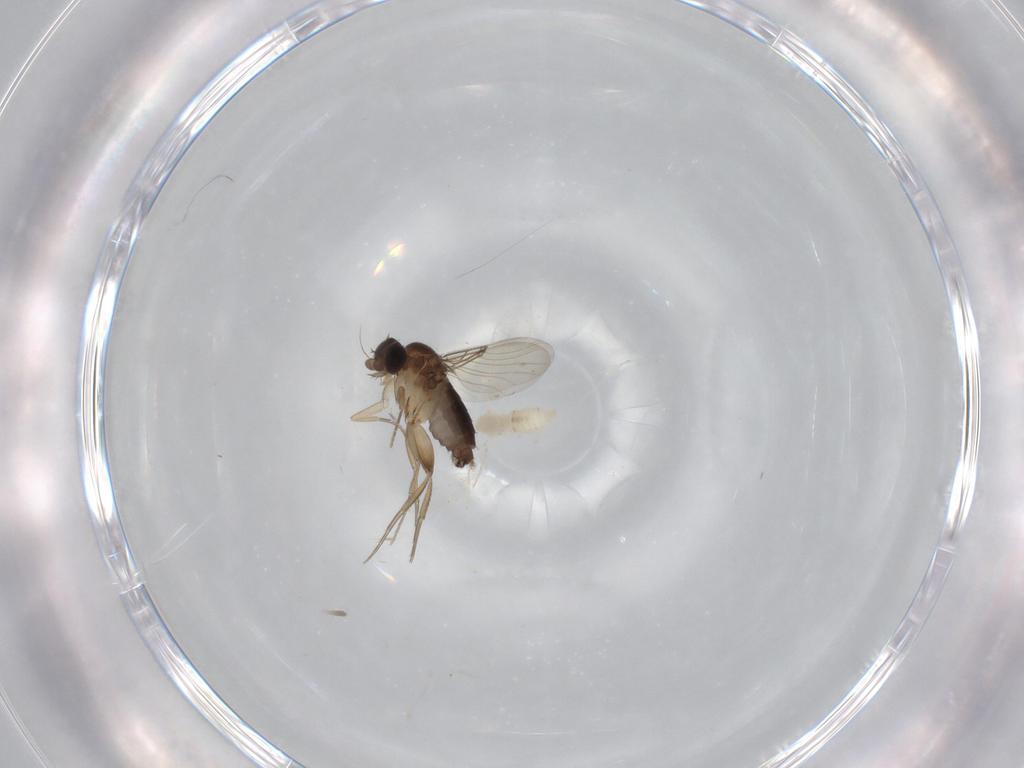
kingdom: Animalia
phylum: Arthropoda
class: Insecta
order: Diptera
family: Cecidomyiidae
